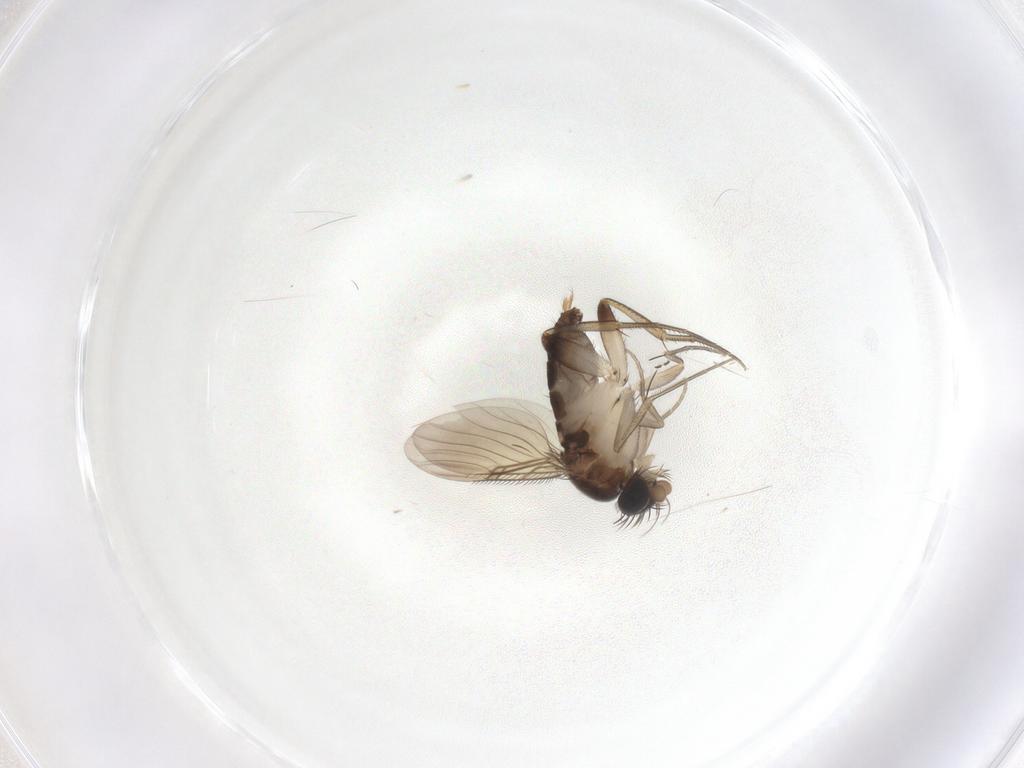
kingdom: Animalia
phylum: Arthropoda
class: Insecta
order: Diptera
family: Phoridae
